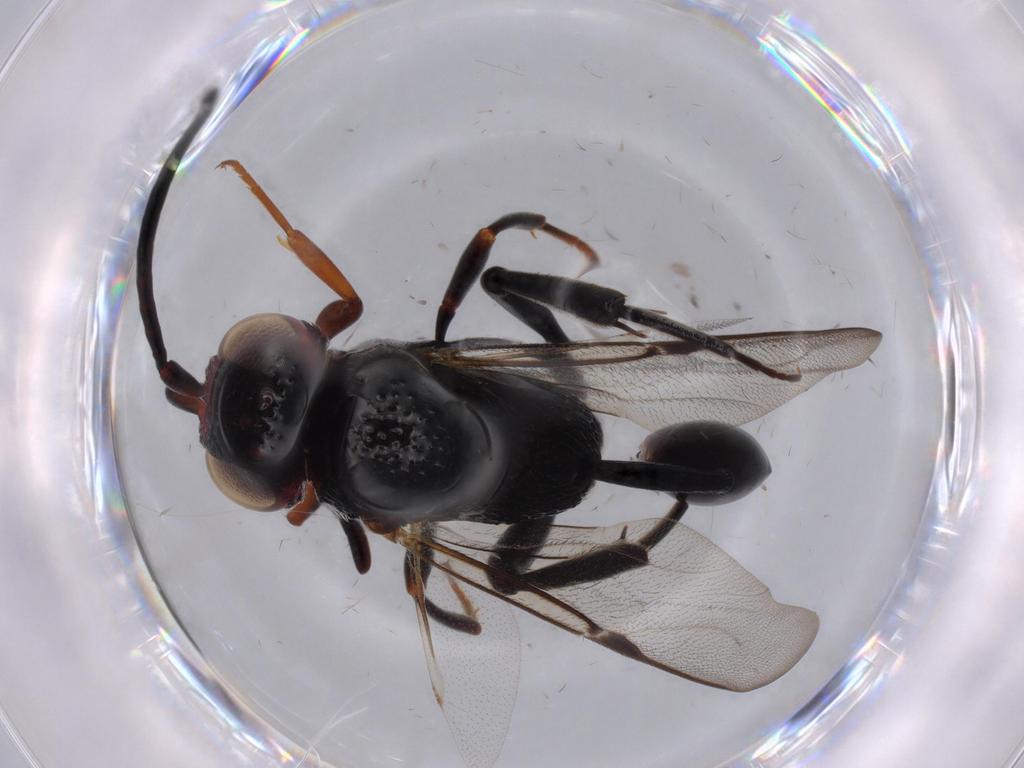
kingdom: Animalia
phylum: Arthropoda
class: Insecta
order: Hymenoptera
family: Evaniidae
